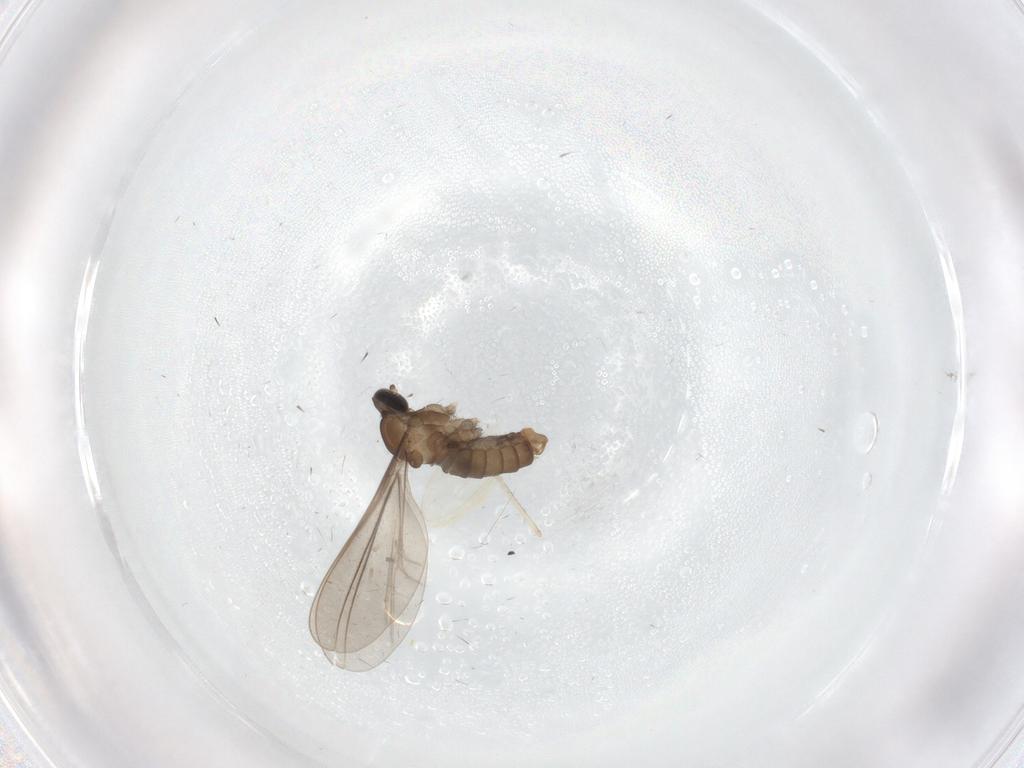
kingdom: Animalia
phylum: Arthropoda
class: Insecta
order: Diptera
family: Cecidomyiidae
